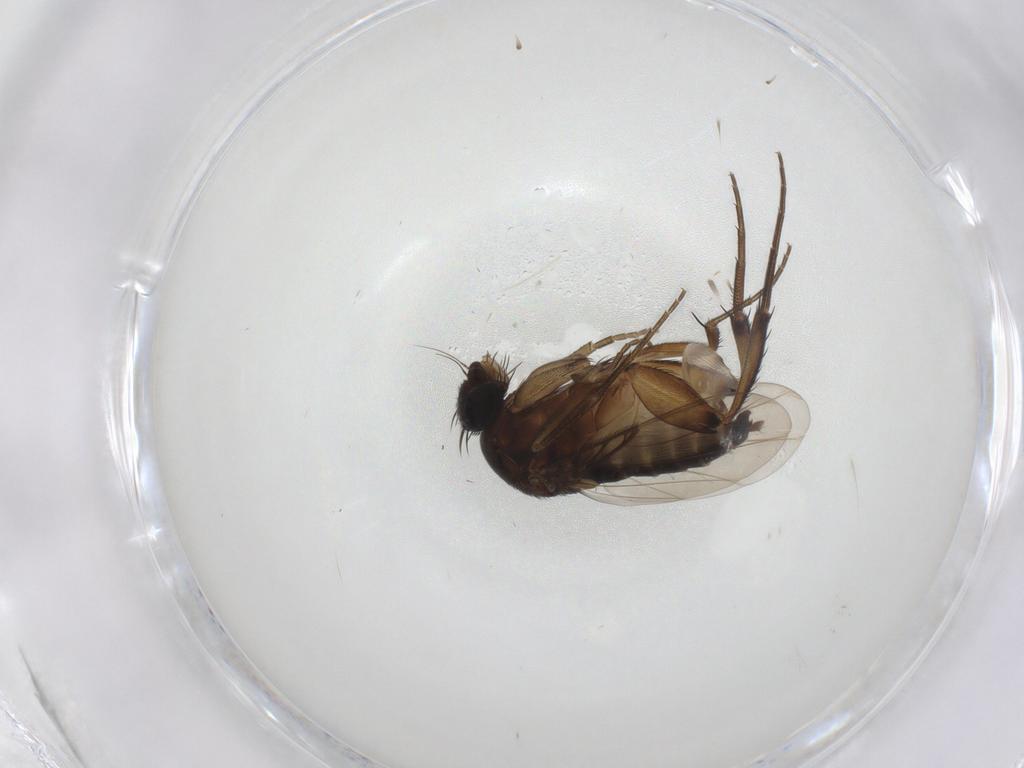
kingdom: Animalia
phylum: Arthropoda
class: Insecta
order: Diptera
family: Phoridae
